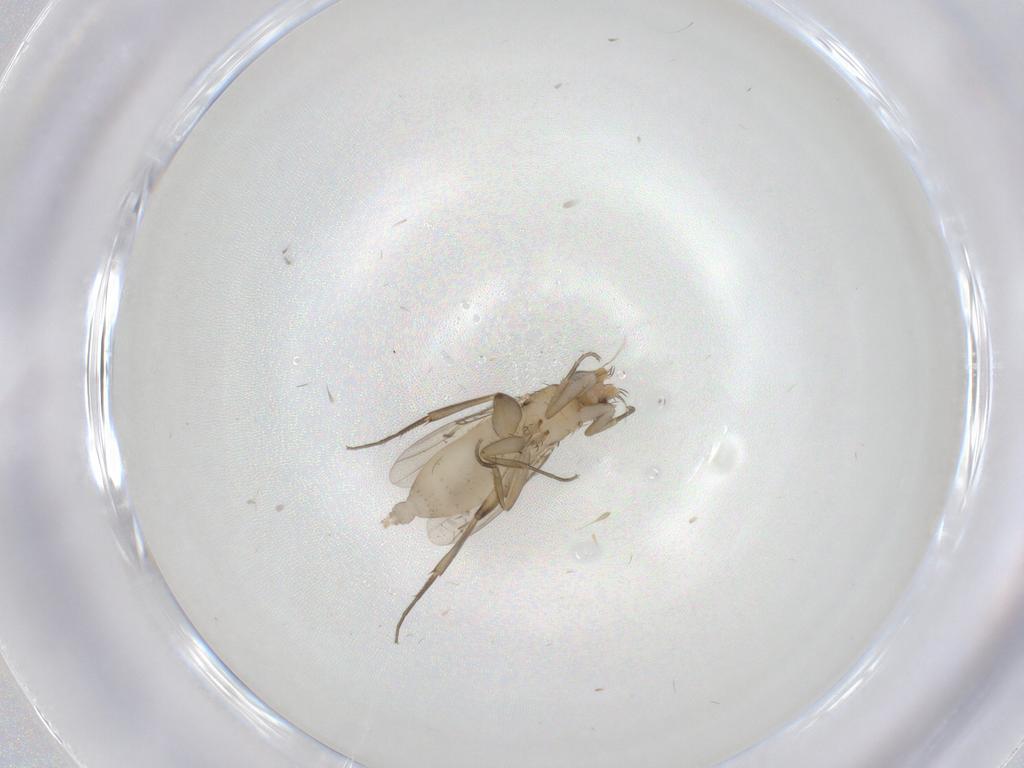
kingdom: Animalia
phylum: Arthropoda
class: Insecta
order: Diptera
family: Phoridae
